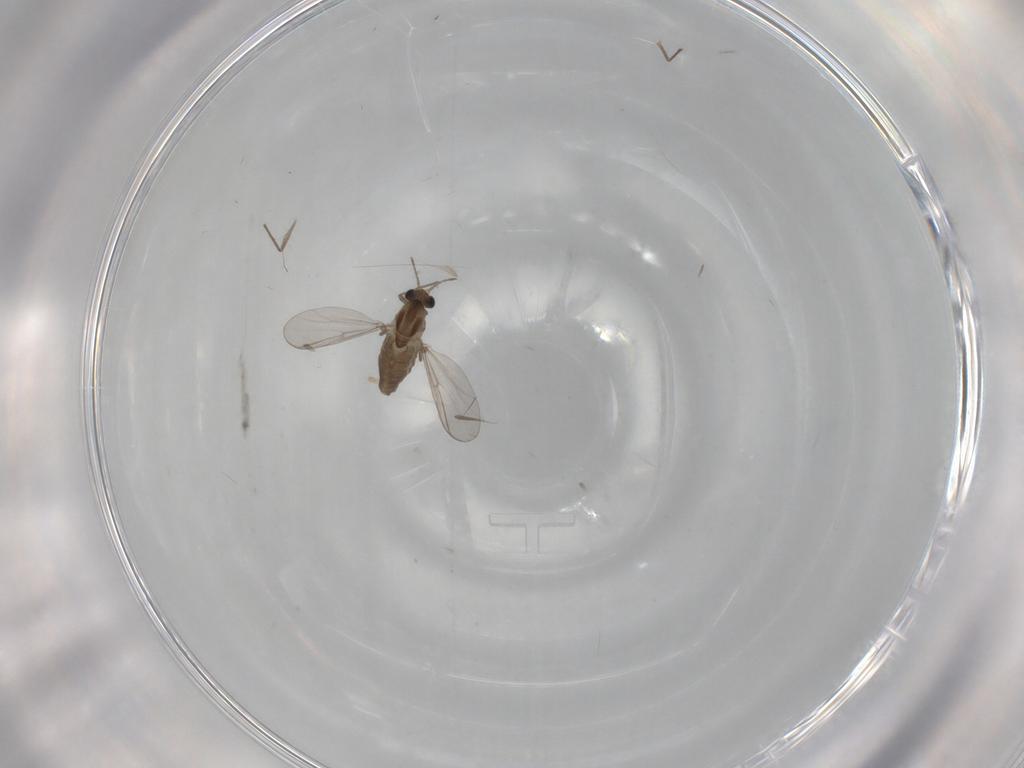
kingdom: Animalia
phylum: Arthropoda
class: Insecta
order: Diptera
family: Chironomidae
